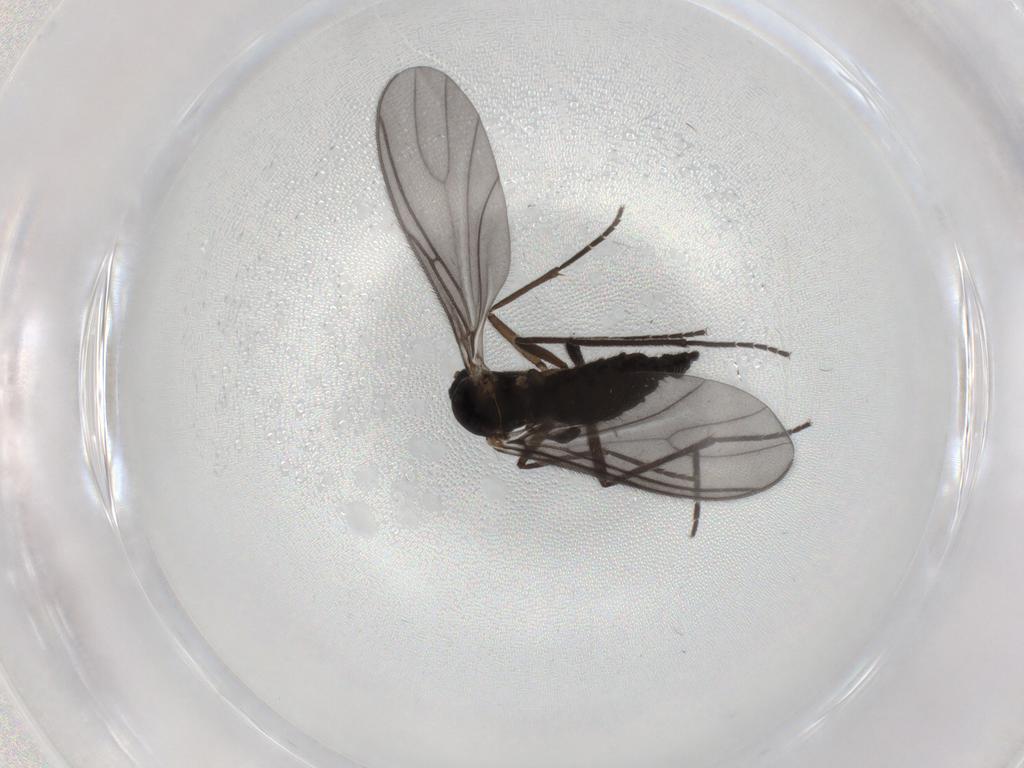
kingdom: Animalia
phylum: Arthropoda
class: Insecta
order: Diptera
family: Sciaridae
